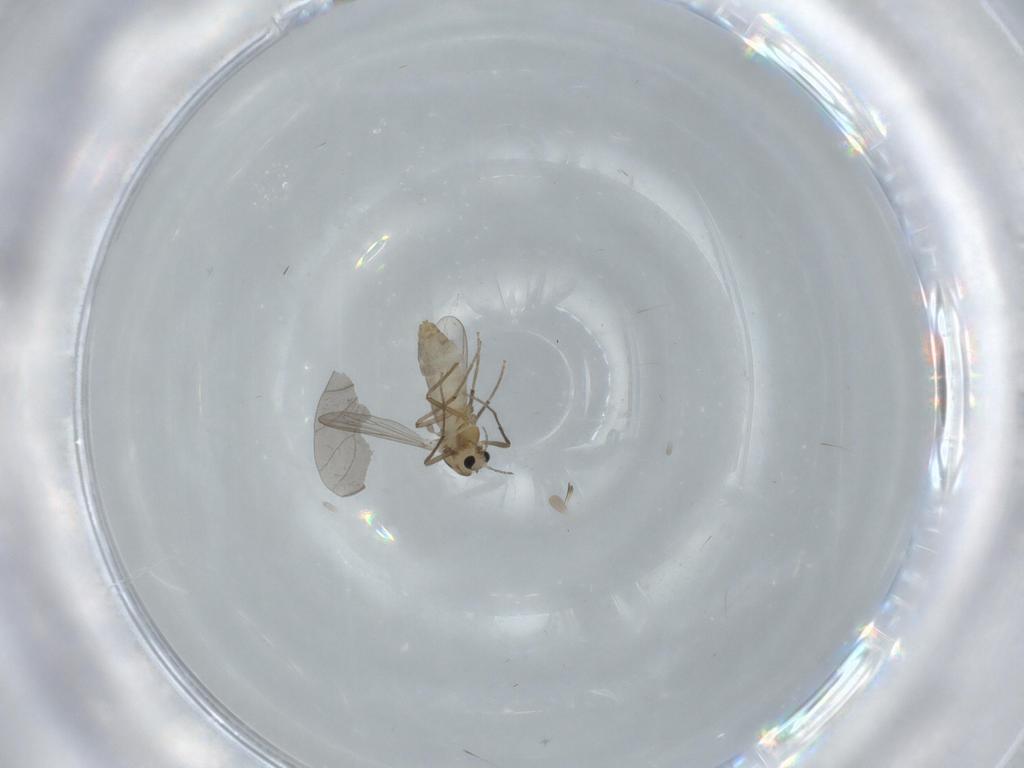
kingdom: Animalia
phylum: Arthropoda
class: Insecta
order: Diptera
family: Chironomidae
